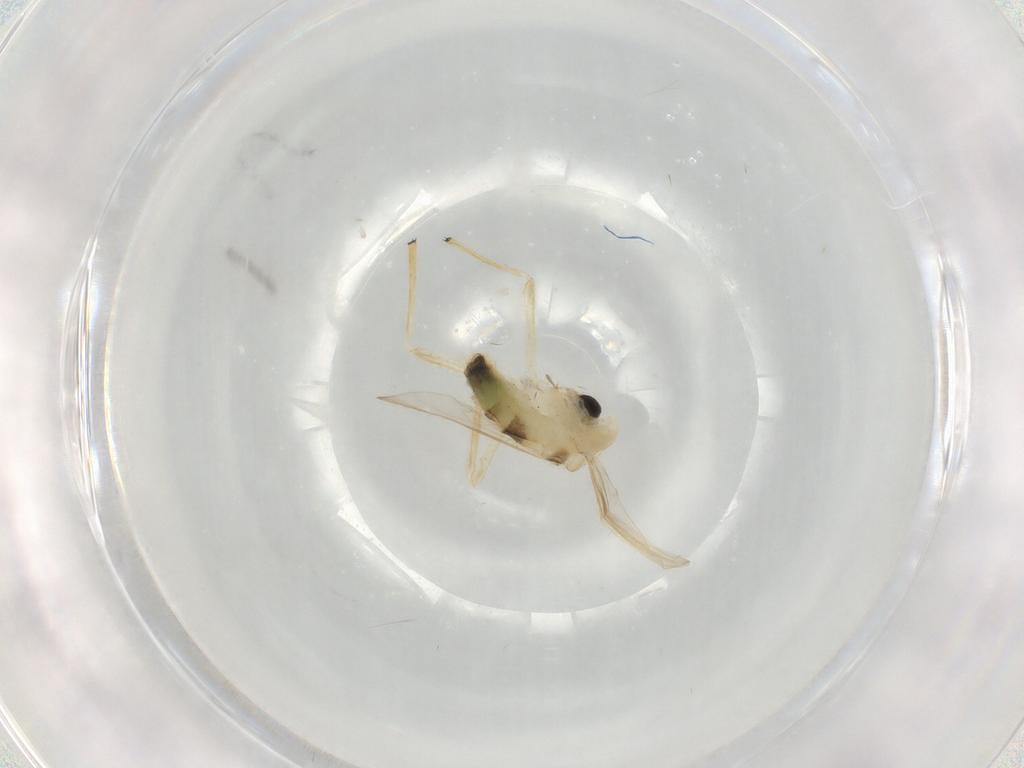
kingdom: Animalia
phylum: Arthropoda
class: Insecta
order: Diptera
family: Chironomidae
